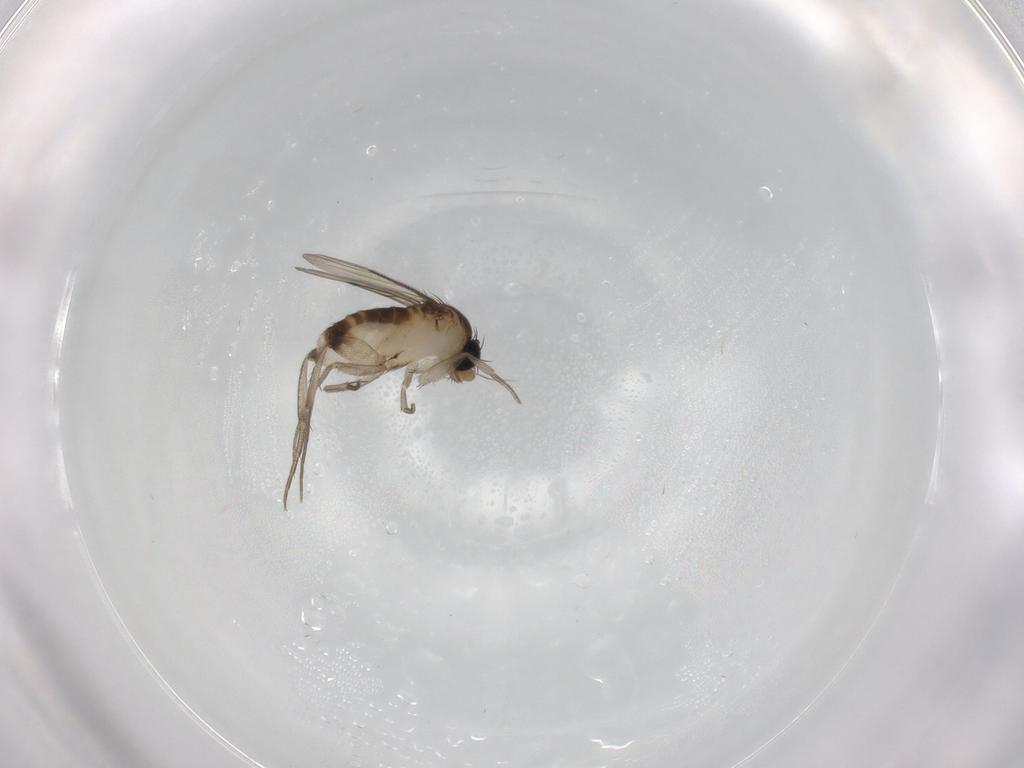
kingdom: Animalia
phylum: Arthropoda
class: Insecta
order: Diptera
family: Phoridae
